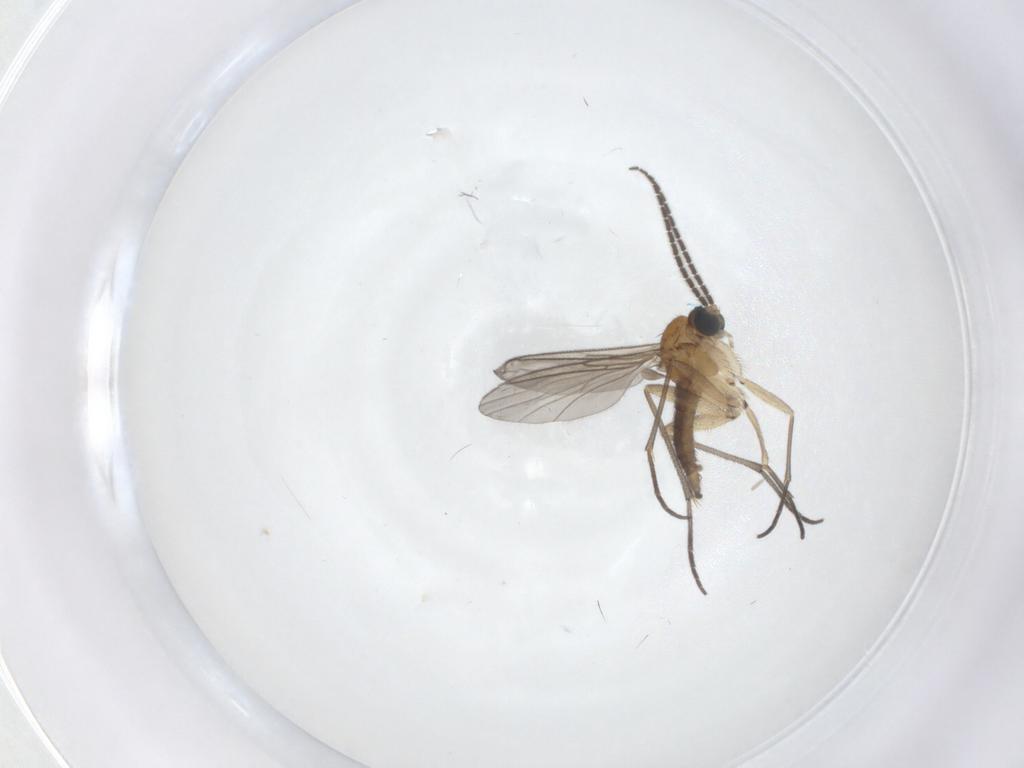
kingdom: Animalia
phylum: Arthropoda
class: Insecta
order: Diptera
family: Sciaridae
